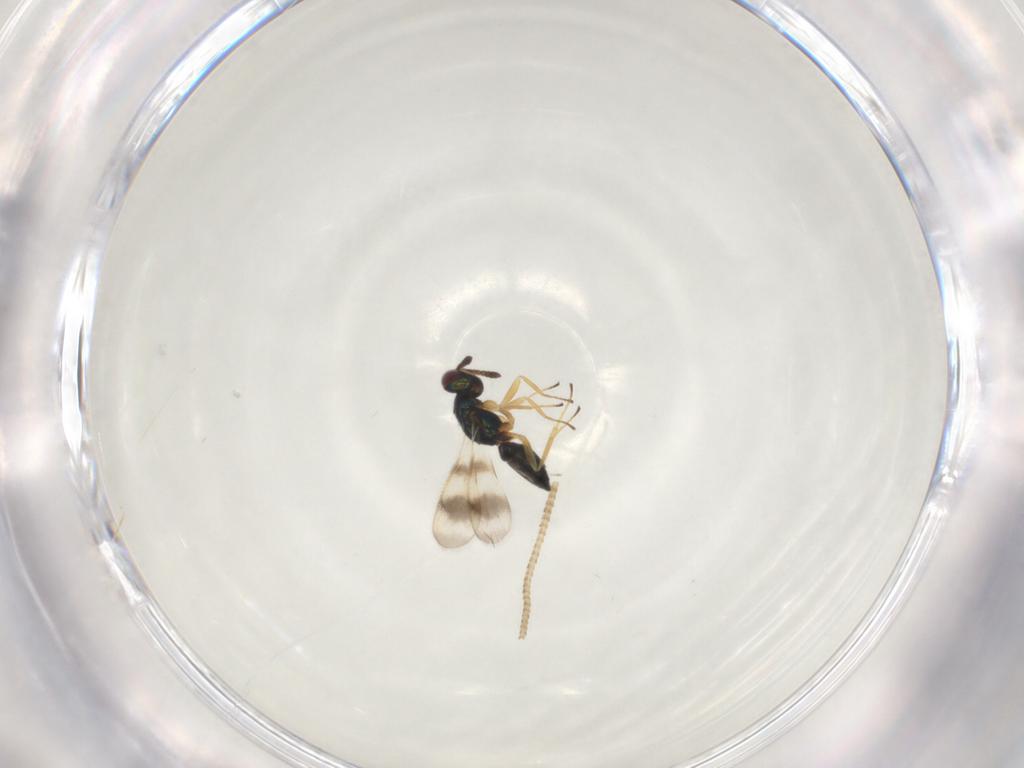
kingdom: Animalia
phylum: Arthropoda
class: Insecta
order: Hymenoptera
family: Tetracampidae
